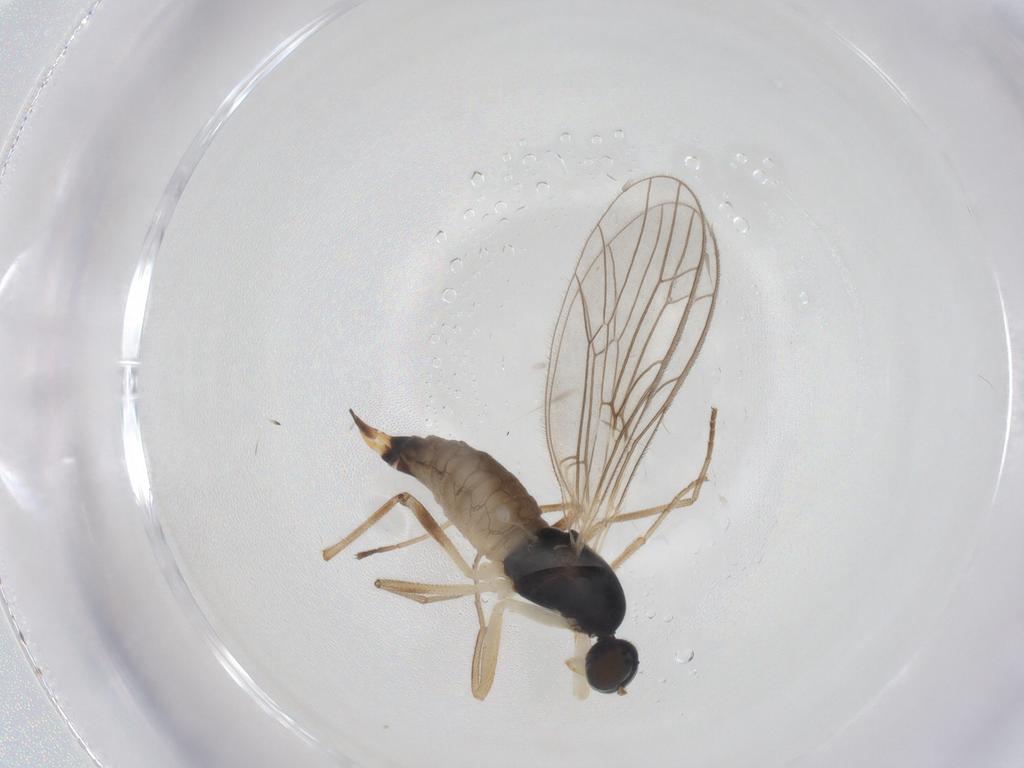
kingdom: Animalia
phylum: Arthropoda
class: Insecta
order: Diptera
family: Empididae
